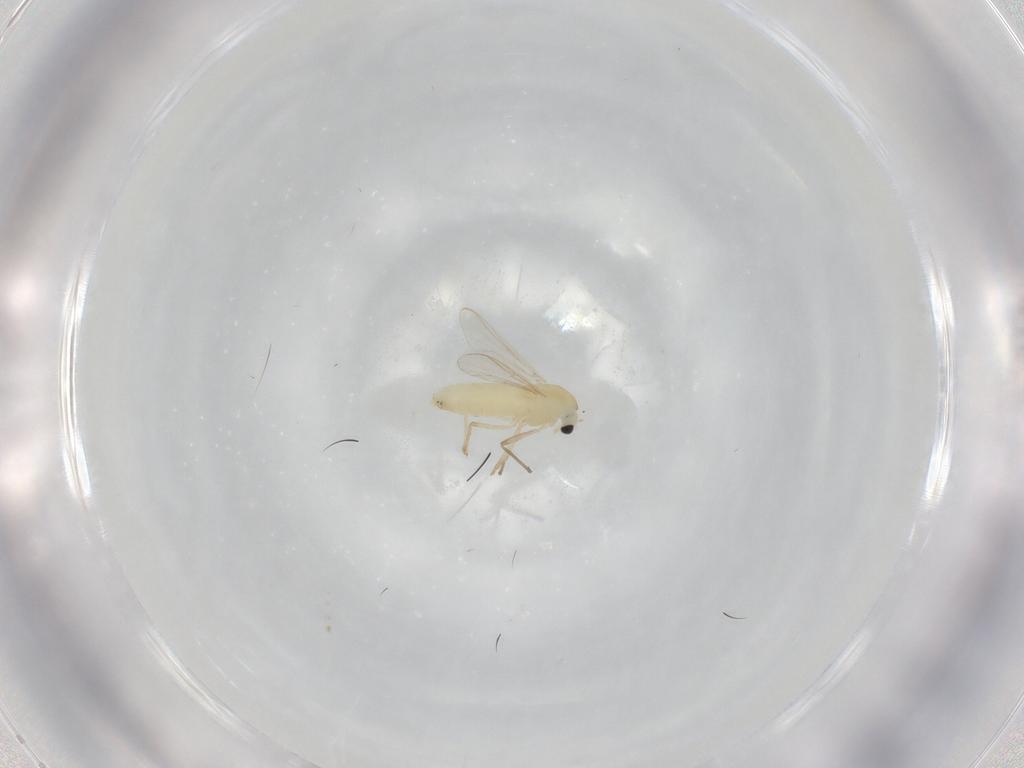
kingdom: Animalia
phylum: Arthropoda
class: Insecta
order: Diptera
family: Chironomidae
